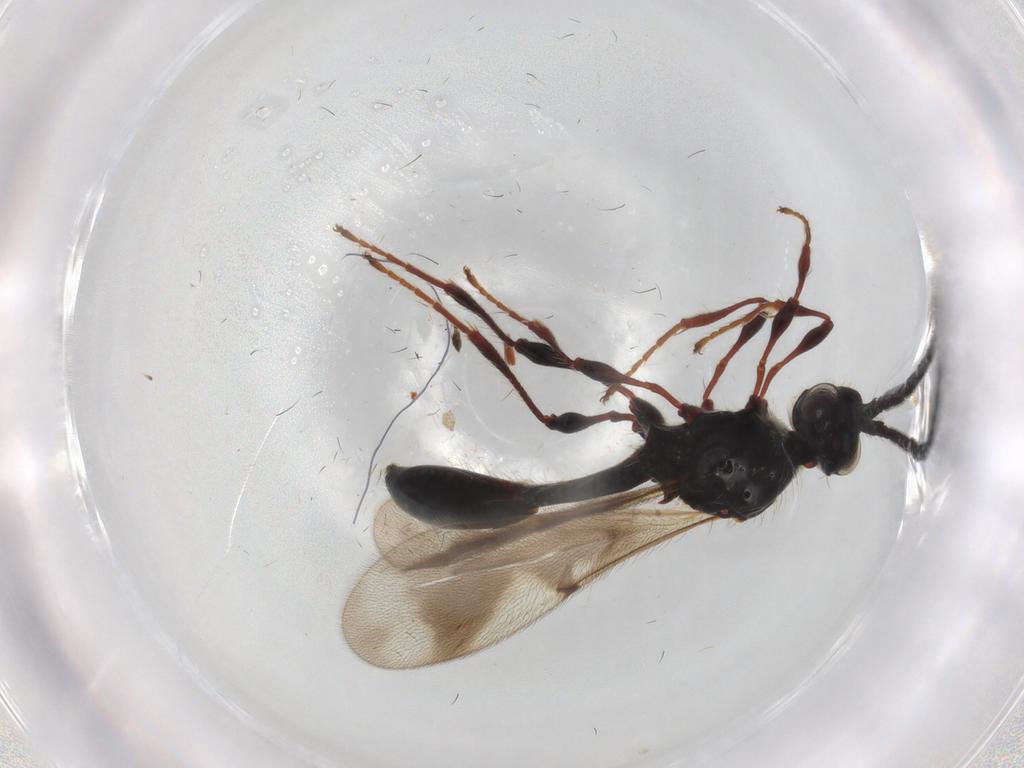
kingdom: Animalia
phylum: Arthropoda
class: Insecta
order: Hymenoptera
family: Diapriidae
